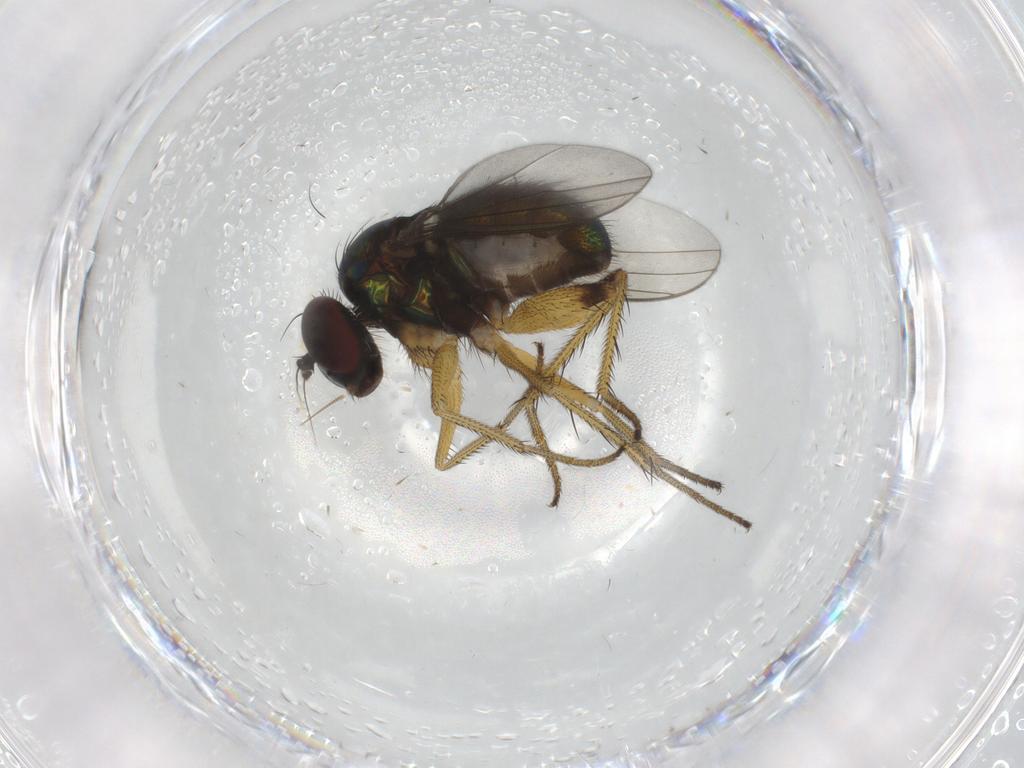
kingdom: Animalia
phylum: Arthropoda
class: Insecta
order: Diptera
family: Dolichopodidae
